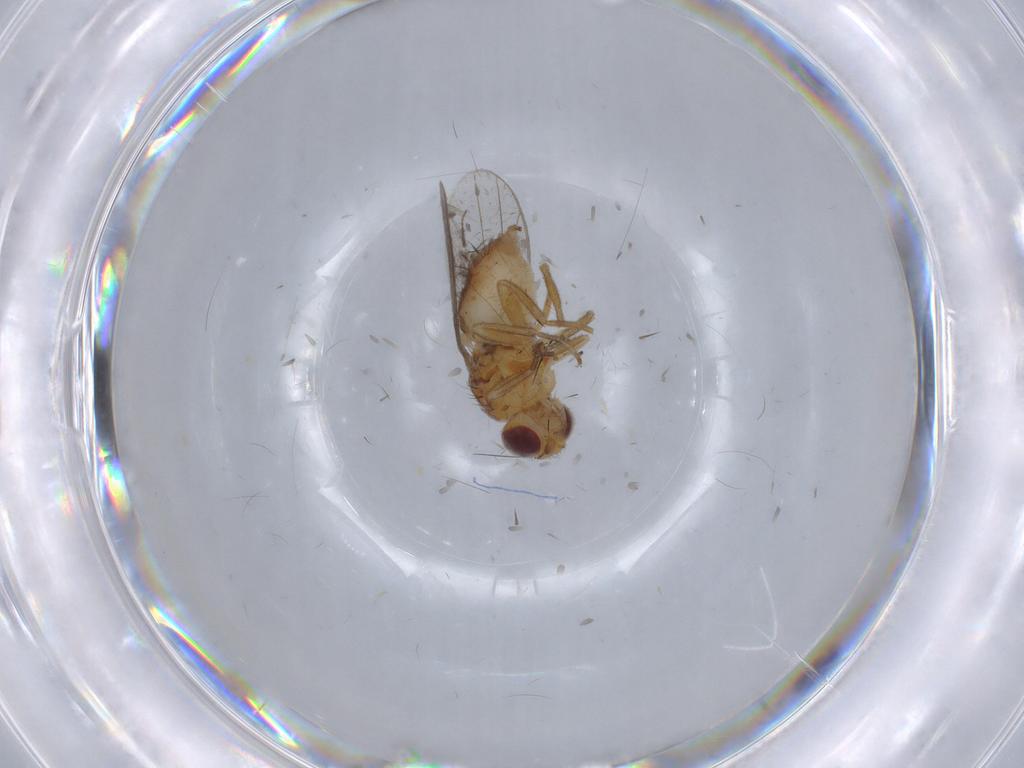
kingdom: Animalia
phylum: Arthropoda
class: Insecta
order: Diptera
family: Chloropidae
